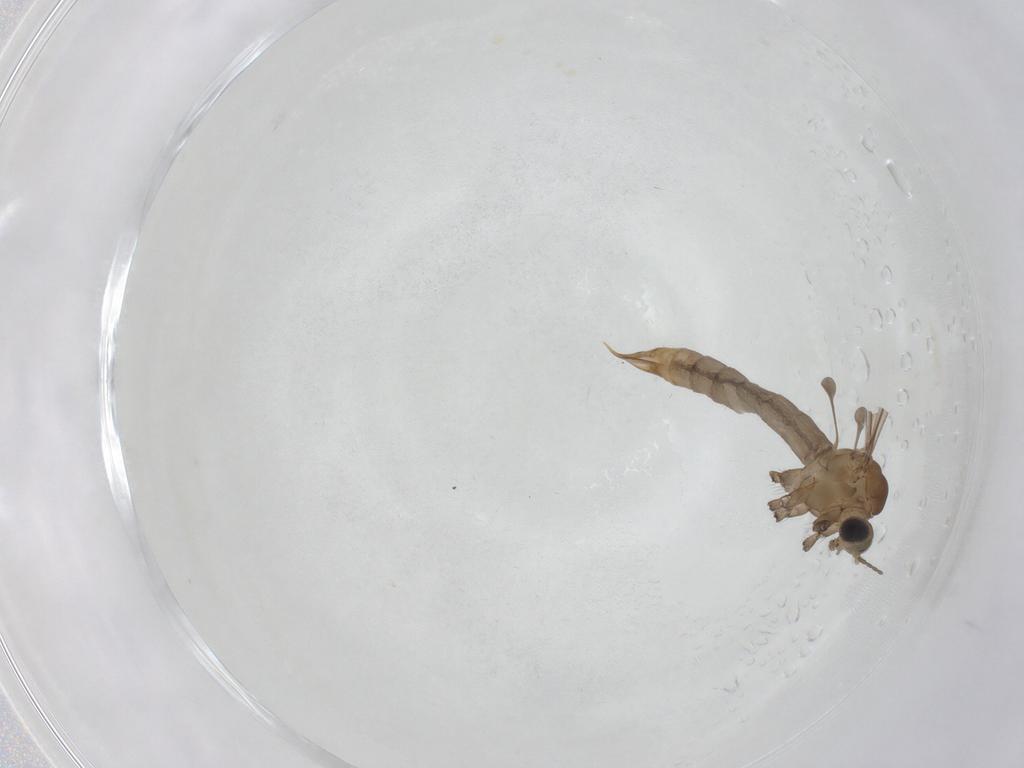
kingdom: Animalia
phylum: Arthropoda
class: Insecta
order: Diptera
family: Limoniidae
